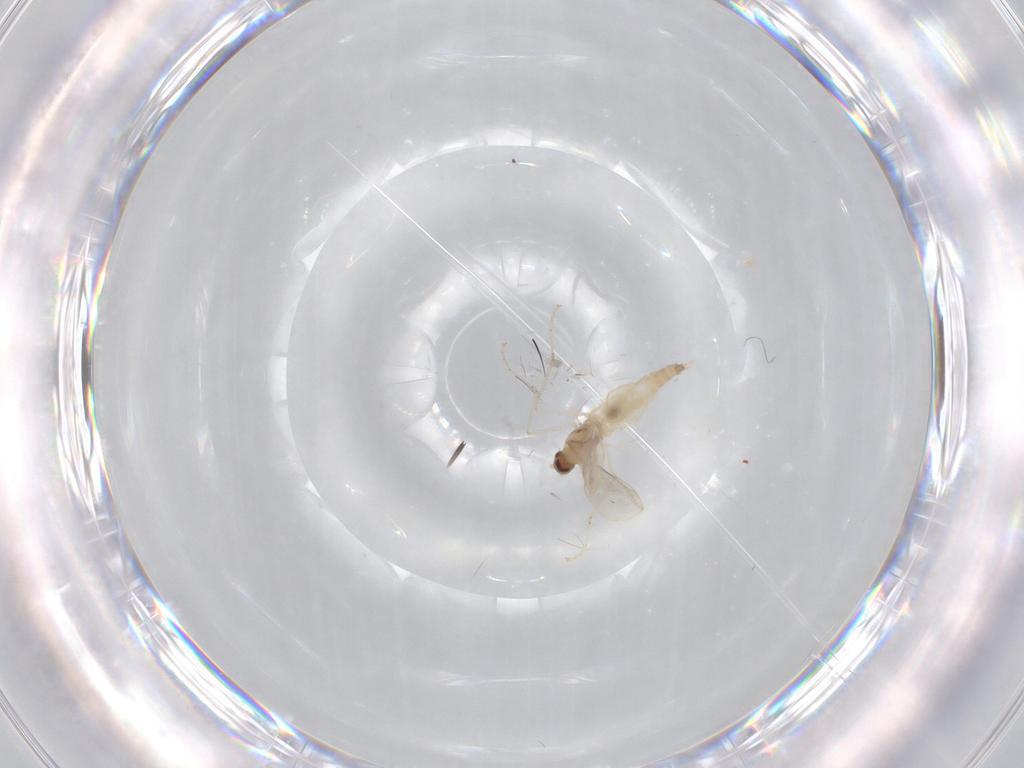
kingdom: Animalia
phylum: Arthropoda
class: Insecta
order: Diptera
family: Cecidomyiidae
